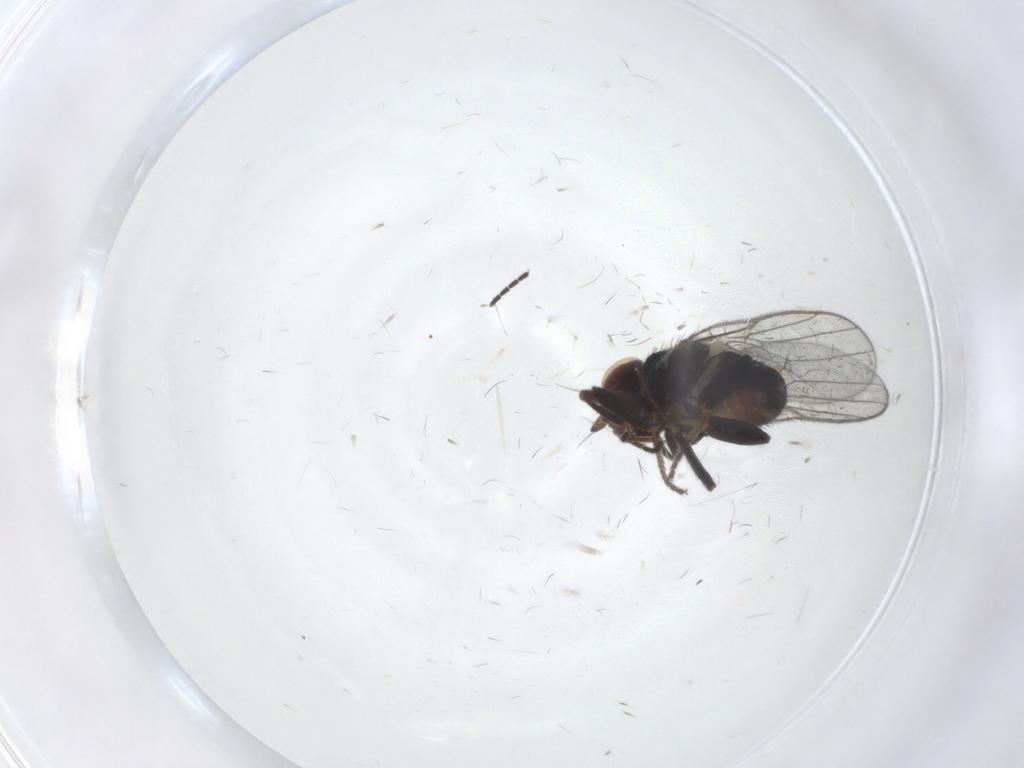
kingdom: Animalia
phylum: Arthropoda
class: Insecta
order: Diptera
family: Chloropidae
